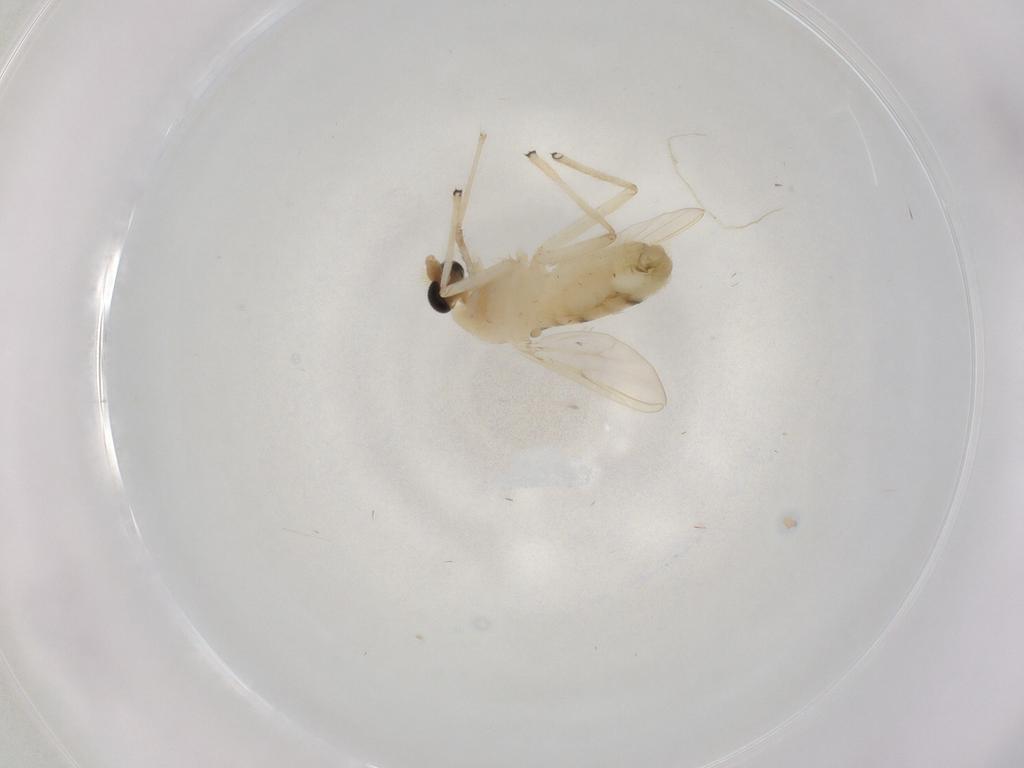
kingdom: Animalia
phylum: Arthropoda
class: Insecta
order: Diptera
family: Chironomidae
